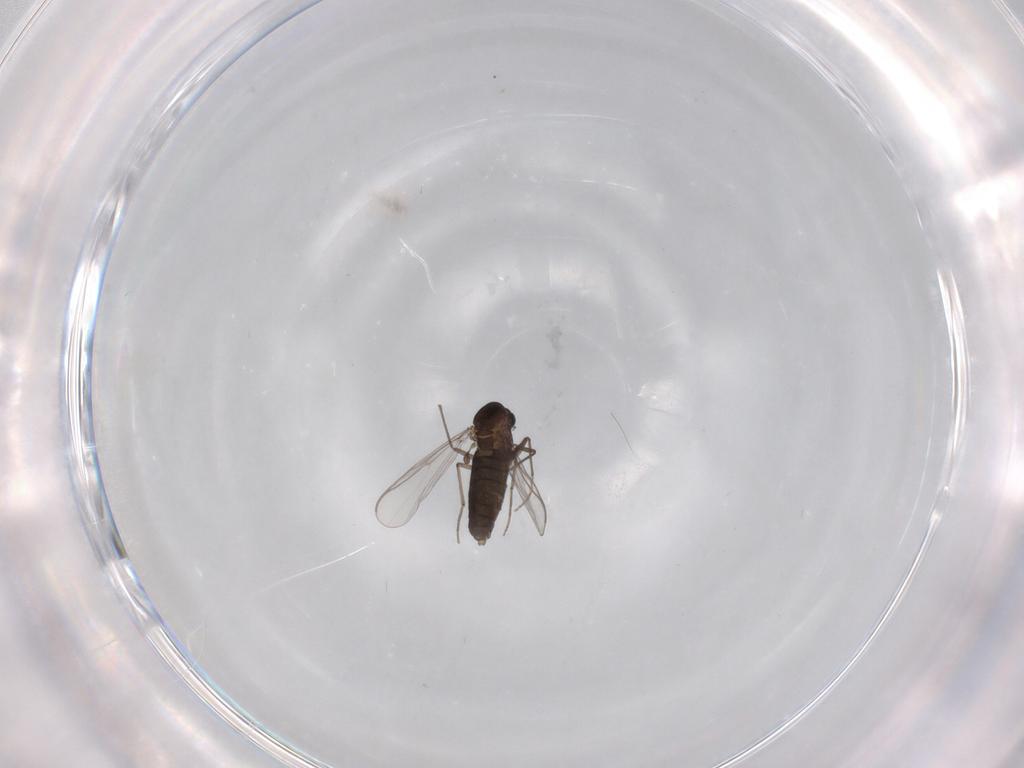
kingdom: Animalia
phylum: Arthropoda
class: Insecta
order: Diptera
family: Chironomidae
